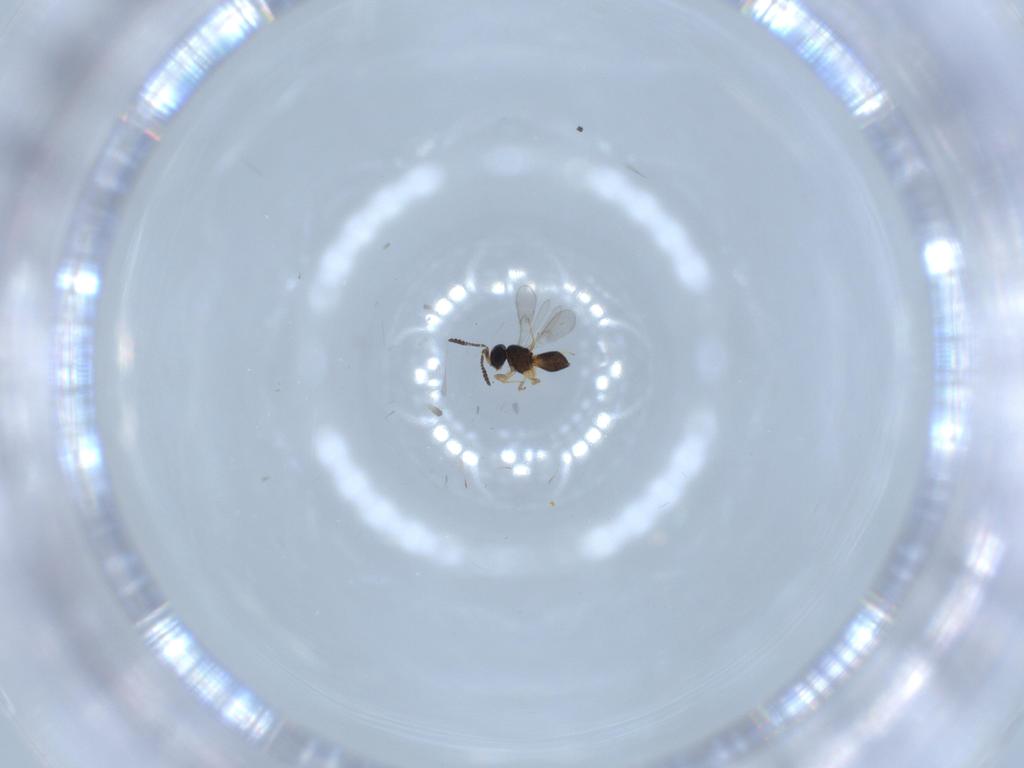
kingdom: Animalia
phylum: Arthropoda
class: Insecta
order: Hymenoptera
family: Scelionidae
